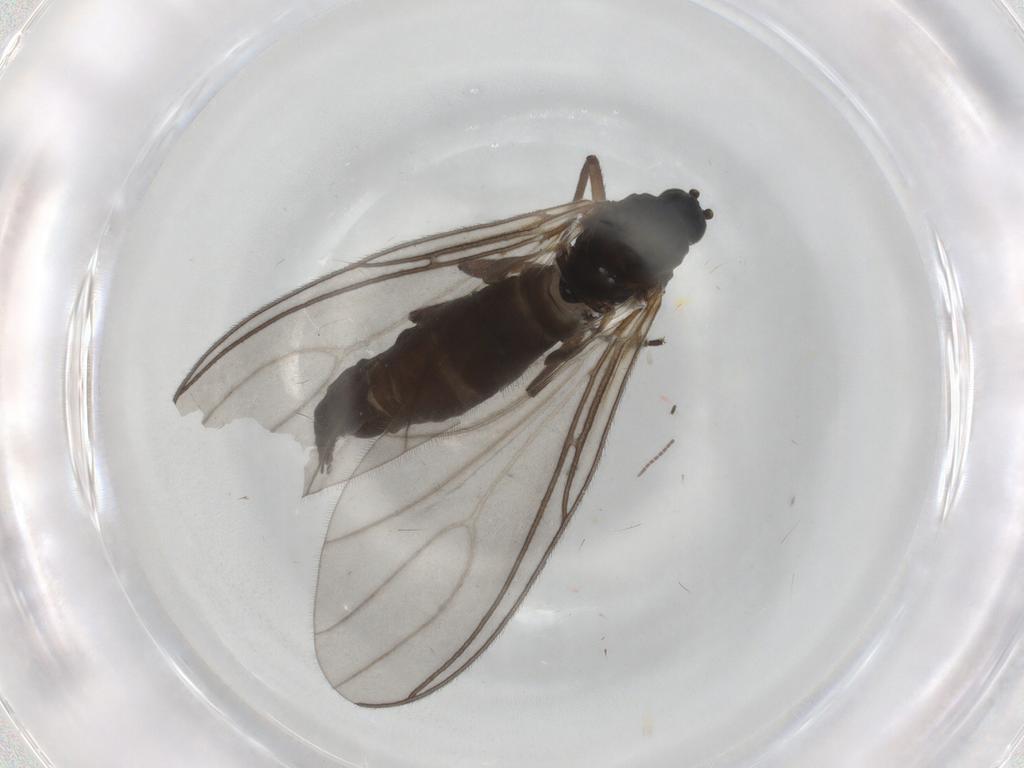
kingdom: Animalia
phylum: Arthropoda
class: Insecta
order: Diptera
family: Sciaridae
